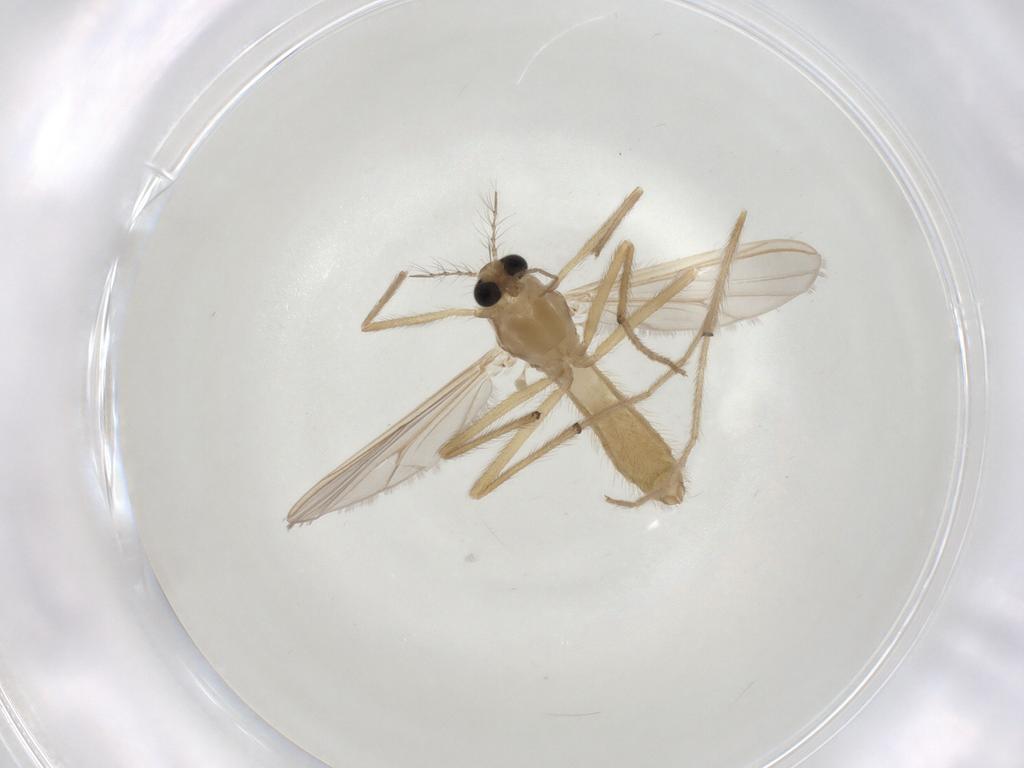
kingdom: Animalia
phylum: Arthropoda
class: Insecta
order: Diptera
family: Chironomidae
